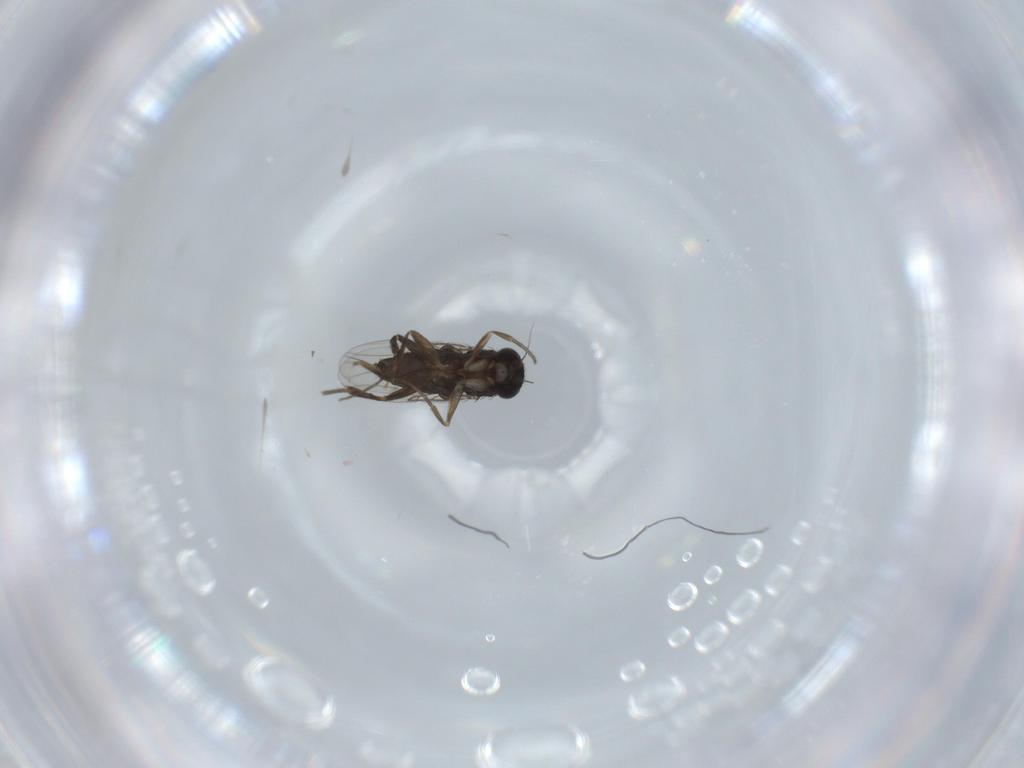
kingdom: Animalia
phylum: Arthropoda
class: Insecta
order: Diptera
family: Phoridae
